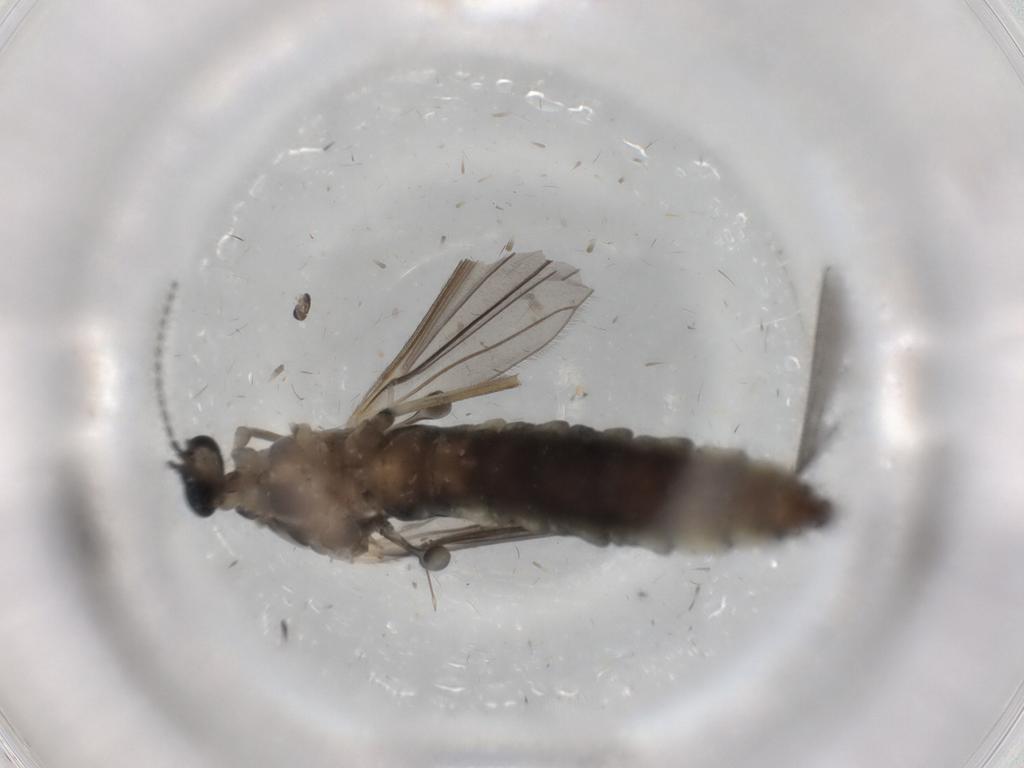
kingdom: Animalia
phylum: Arthropoda
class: Insecta
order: Diptera
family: Limoniidae
